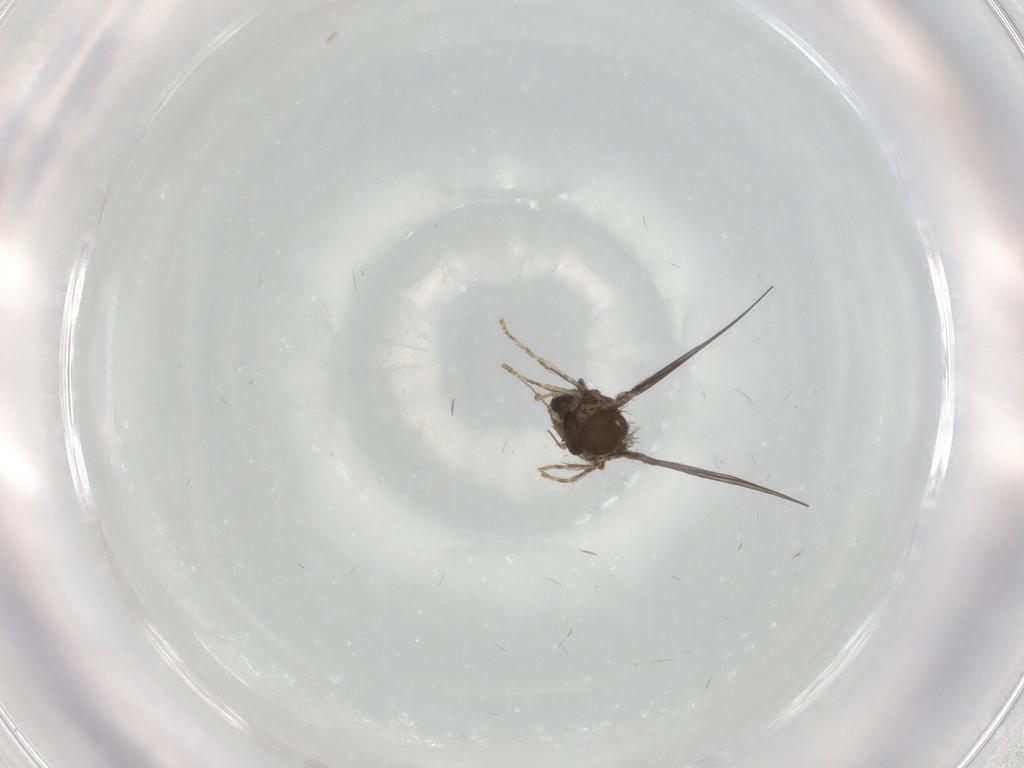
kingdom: Animalia
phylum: Arthropoda
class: Insecta
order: Diptera
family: Psychodidae
